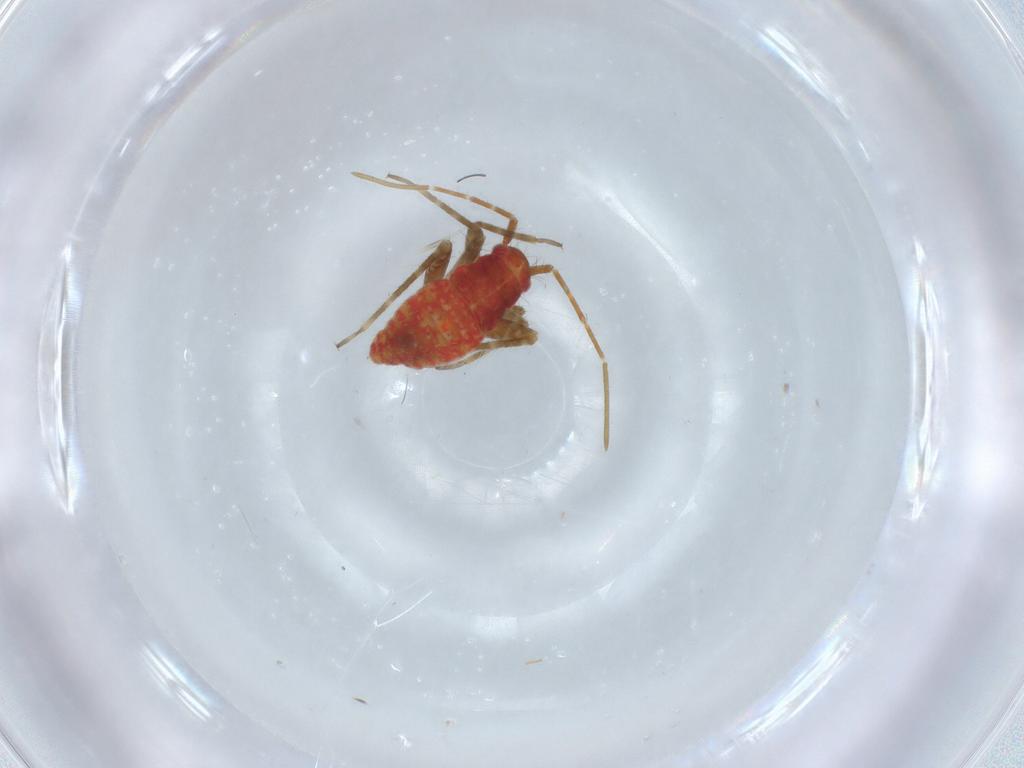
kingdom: Animalia
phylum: Arthropoda
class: Insecta
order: Hemiptera
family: Miridae
